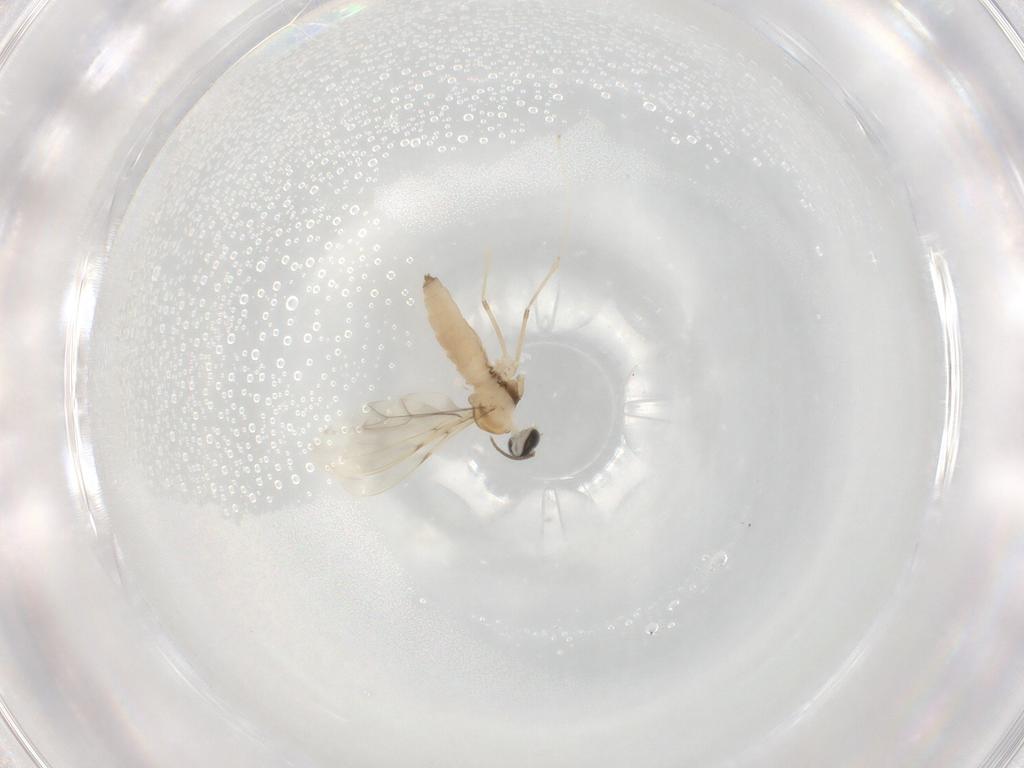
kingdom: Animalia
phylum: Arthropoda
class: Insecta
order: Diptera
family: Cecidomyiidae
